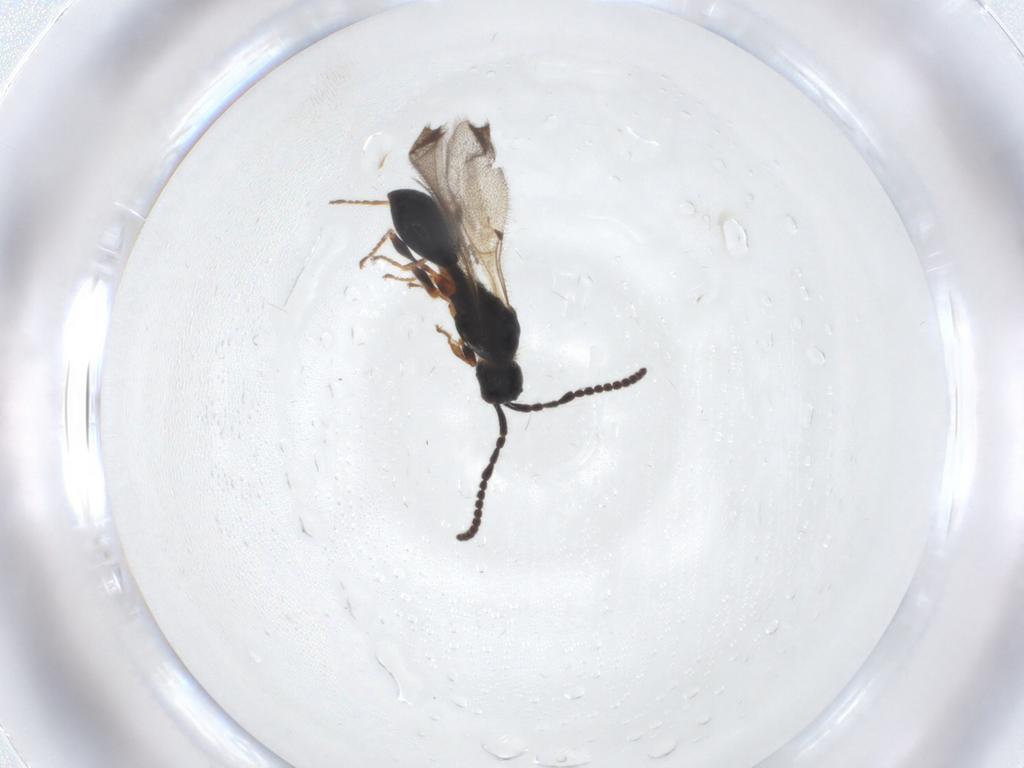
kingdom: Animalia
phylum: Arthropoda
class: Insecta
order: Hymenoptera
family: Diapriidae
